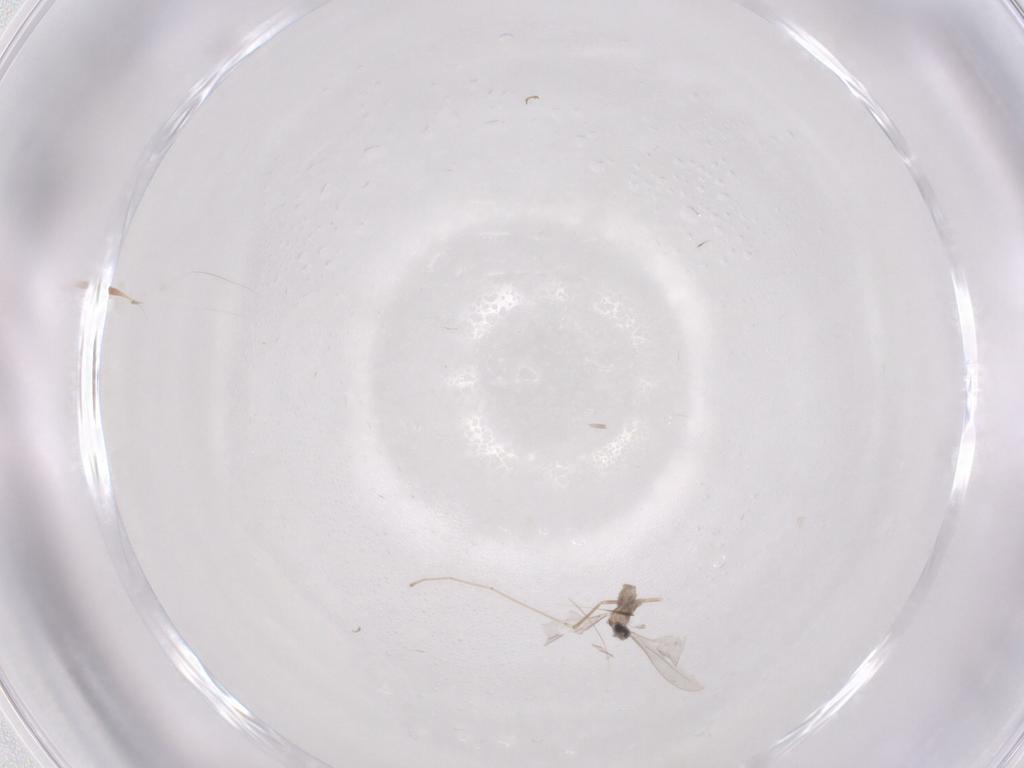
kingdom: Animalia
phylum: Arthropoda
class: Insecta
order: Diptera
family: Cecidomyiidae
